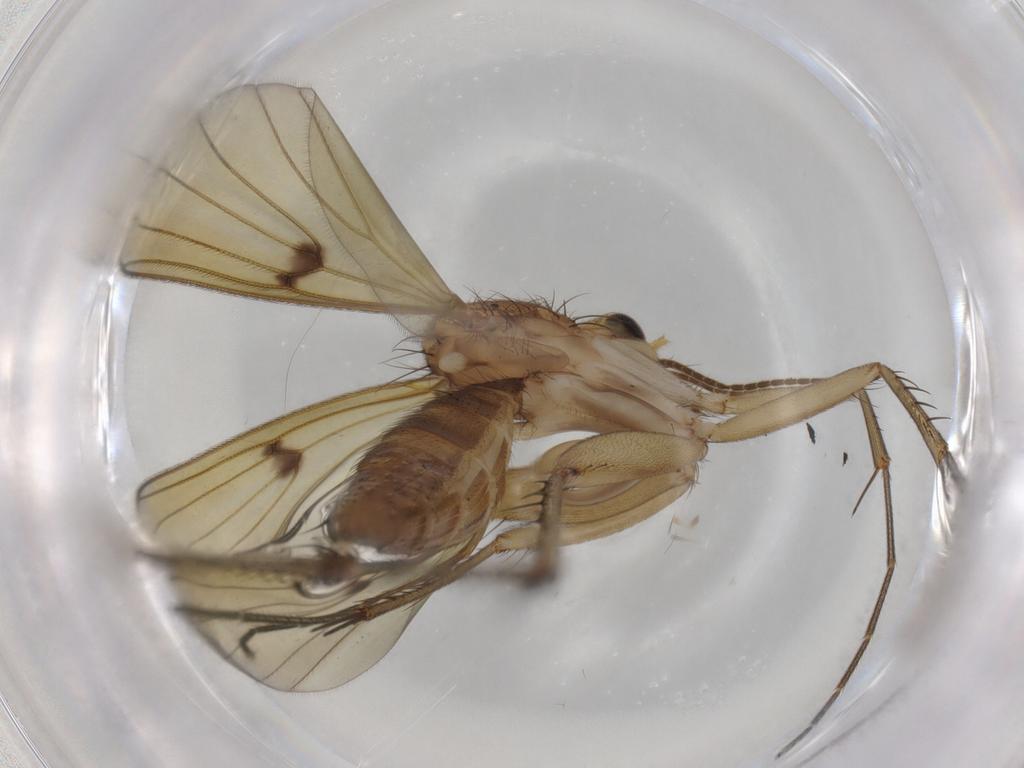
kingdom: Animalia
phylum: Arthropoda
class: Insecta
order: Diptera
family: Mycetophilidae
